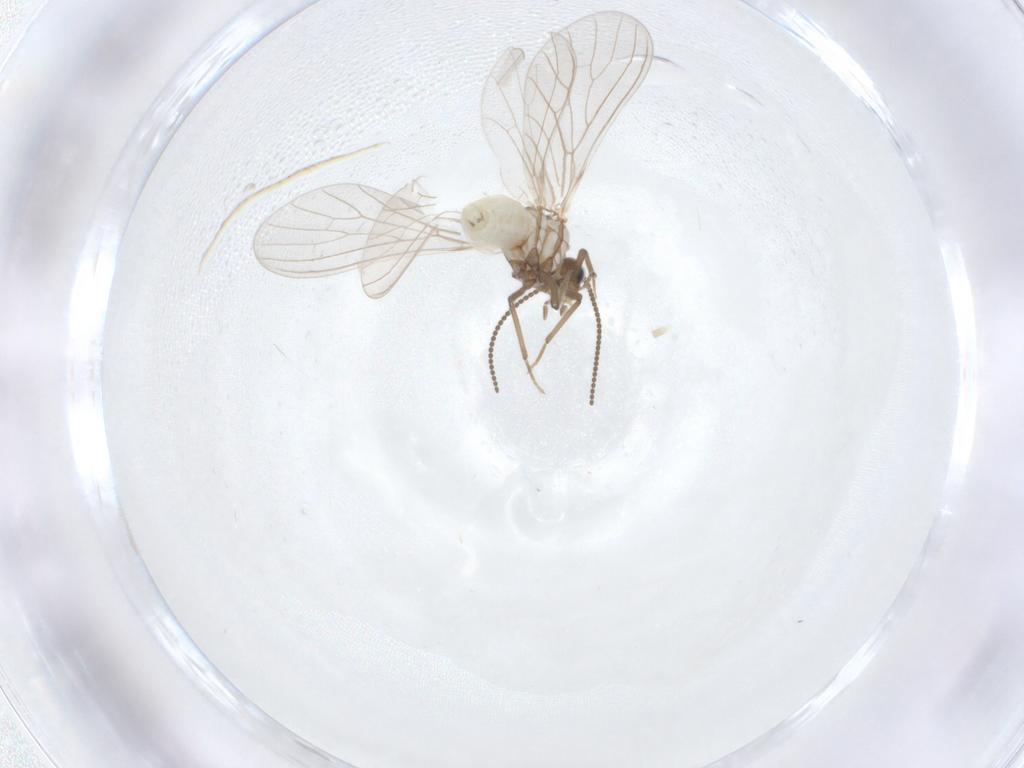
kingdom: Animalia
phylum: Arthropoda
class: Insecta
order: Neuroptera
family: Coniopterygidae
